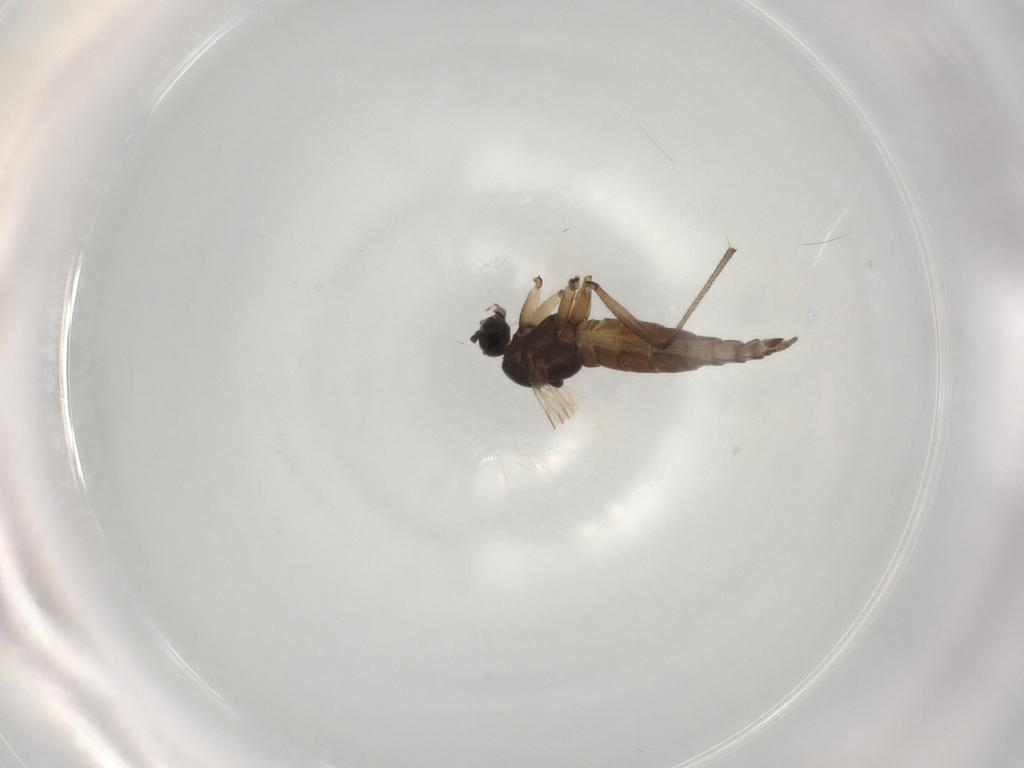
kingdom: Animalia
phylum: Arthropoda
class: Insecta
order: Diptera
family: Sciaridae
